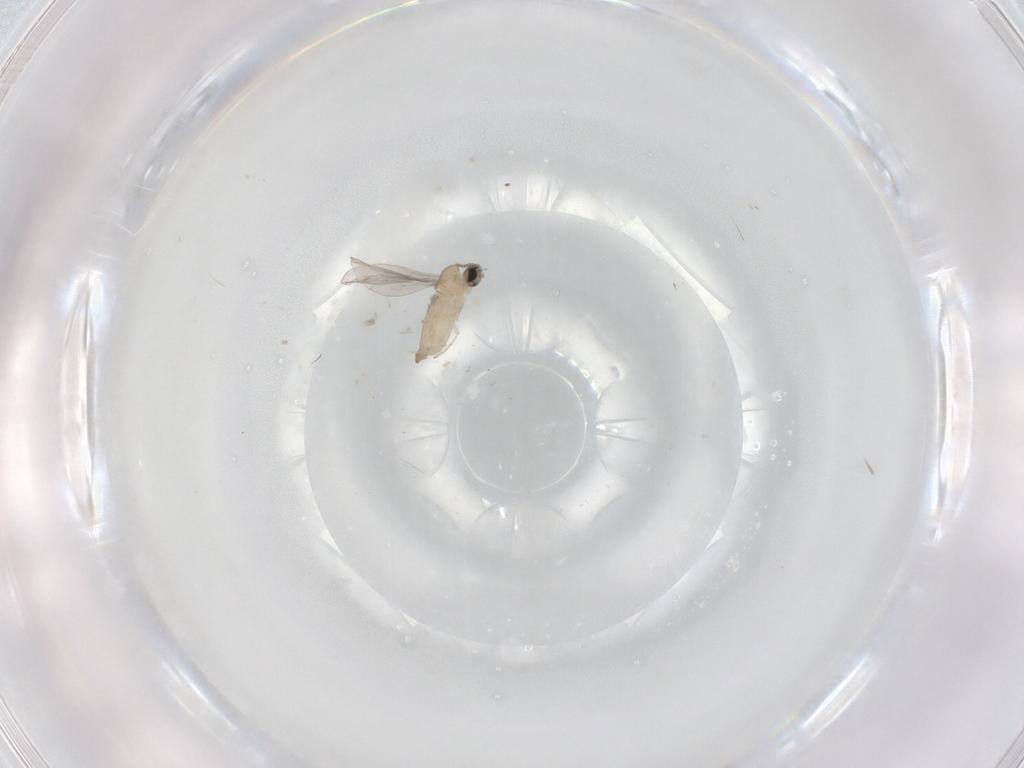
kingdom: Animalia
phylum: Arthropoda
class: Insecta
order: Diptera
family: Cecidomyiidae
